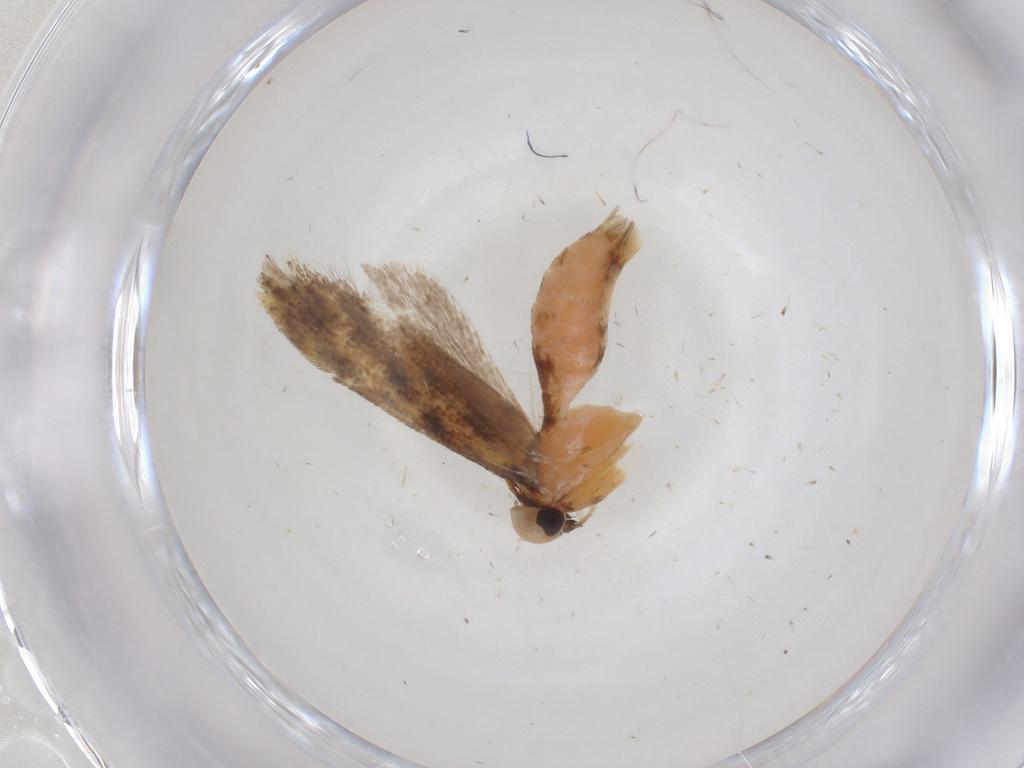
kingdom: Animalia
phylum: Arthropoda
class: Insecta
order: Lepidoptera
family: Gelechiidae
